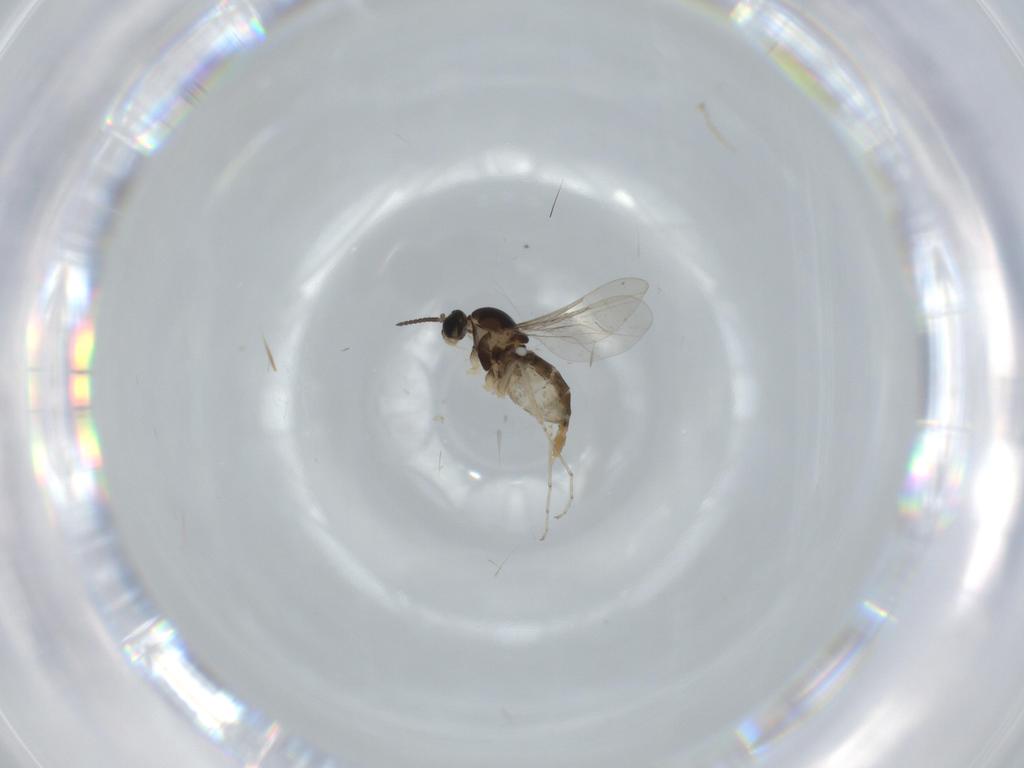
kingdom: Animalia
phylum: Arthropoda
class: Insecta
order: Diptera
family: Cecidomyiidae
